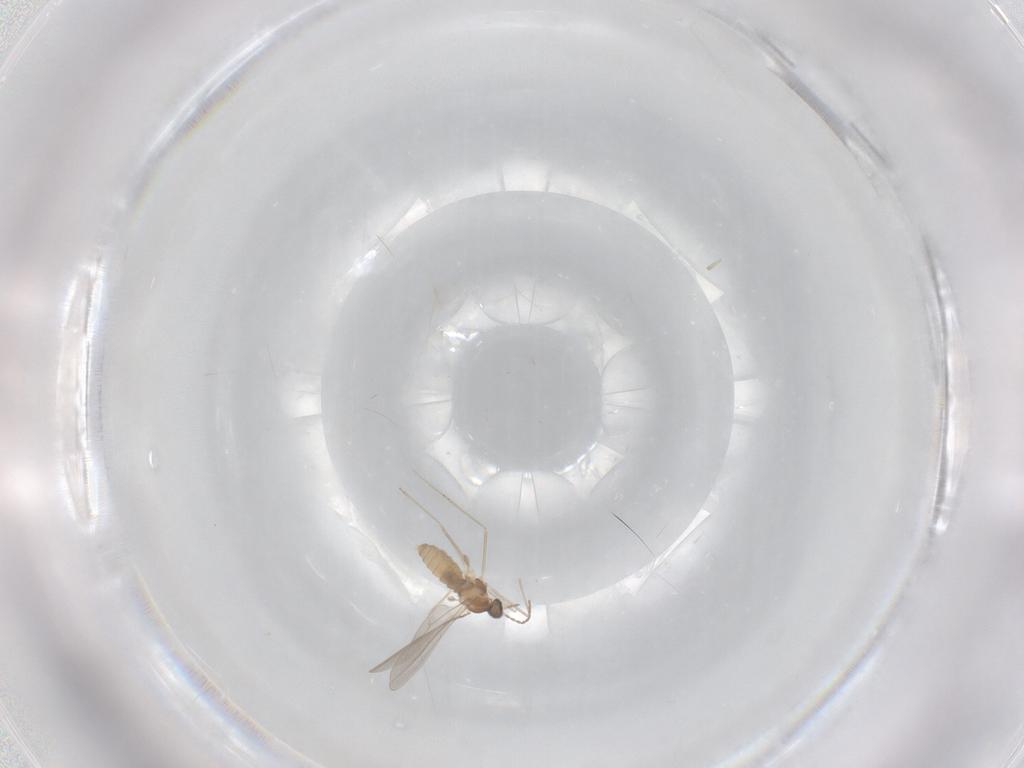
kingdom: Animalia
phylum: Arthropoda
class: Insecta
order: Diptera
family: Cecidomyiidae
